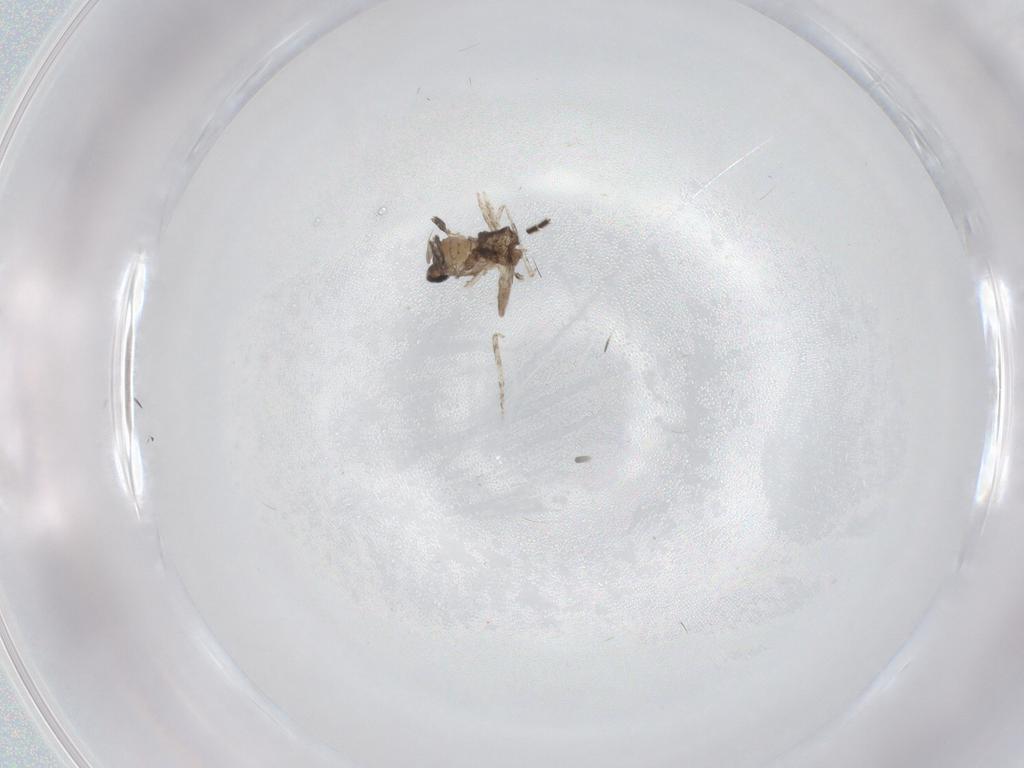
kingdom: Animalia
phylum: Arthropoda
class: Insecta
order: Diptera
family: Cecidomyiidae
